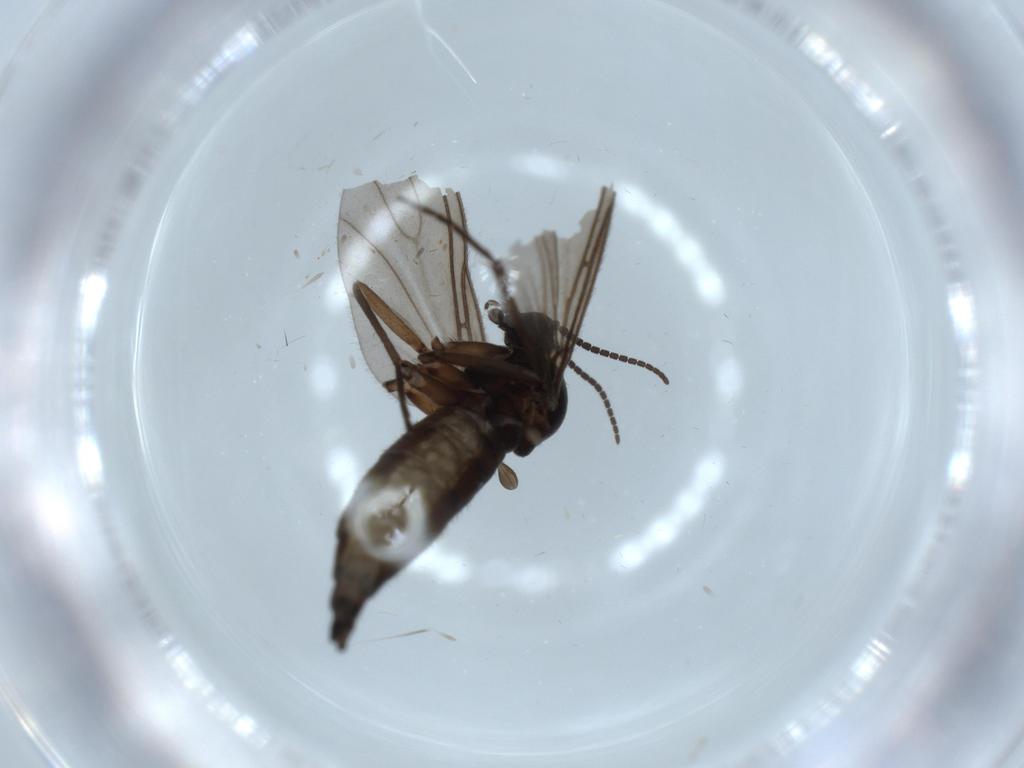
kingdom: Animalia
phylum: Arthropoda
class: Insecta
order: Diptera
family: Sciaridae
